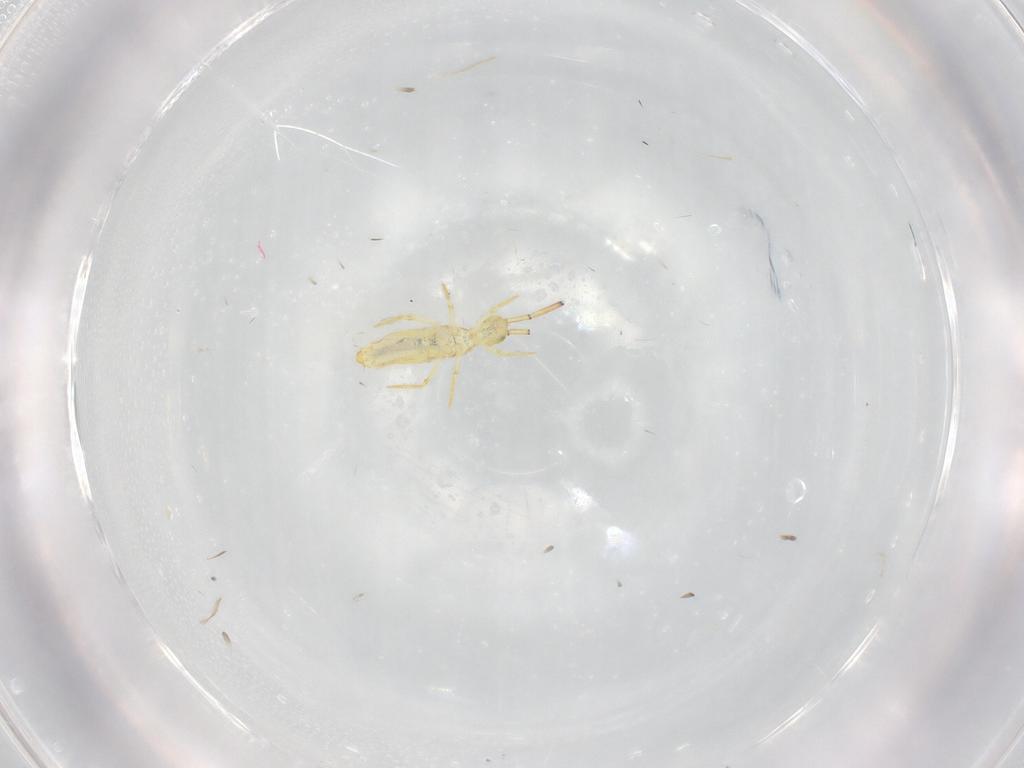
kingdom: Animalia
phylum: Arthropoda
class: Collembola
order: Entomobryomorpha
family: Paronellidae
